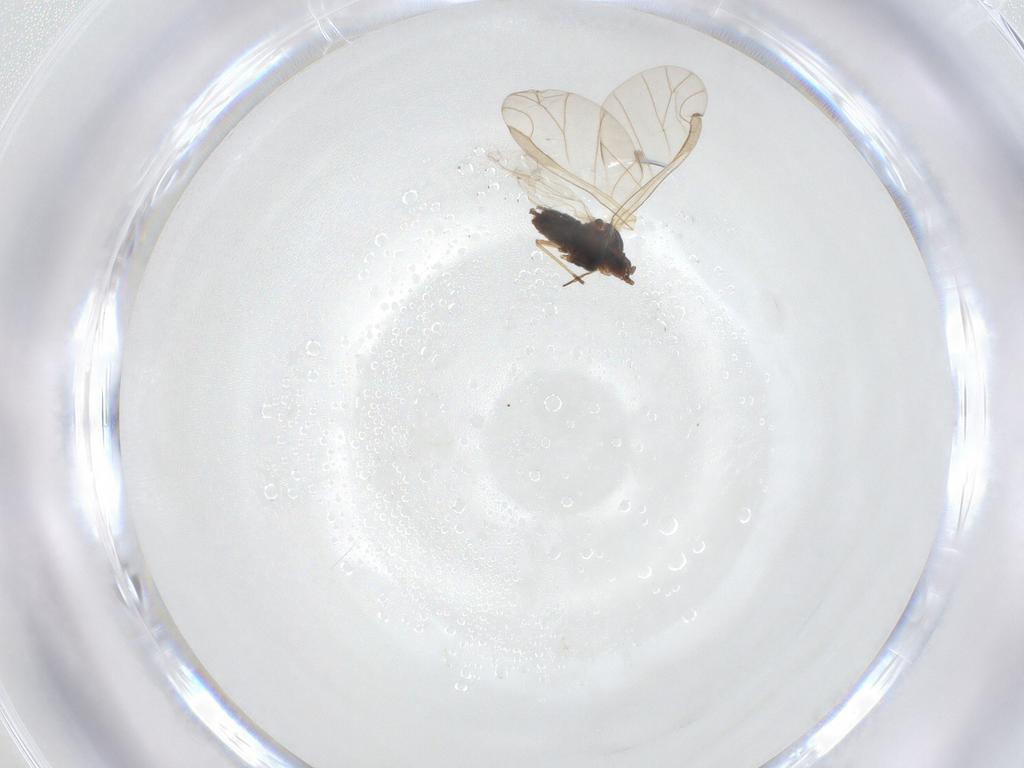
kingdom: Animalia
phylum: Arthropoda
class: Insecta
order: Hemiptera
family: Aphididae
